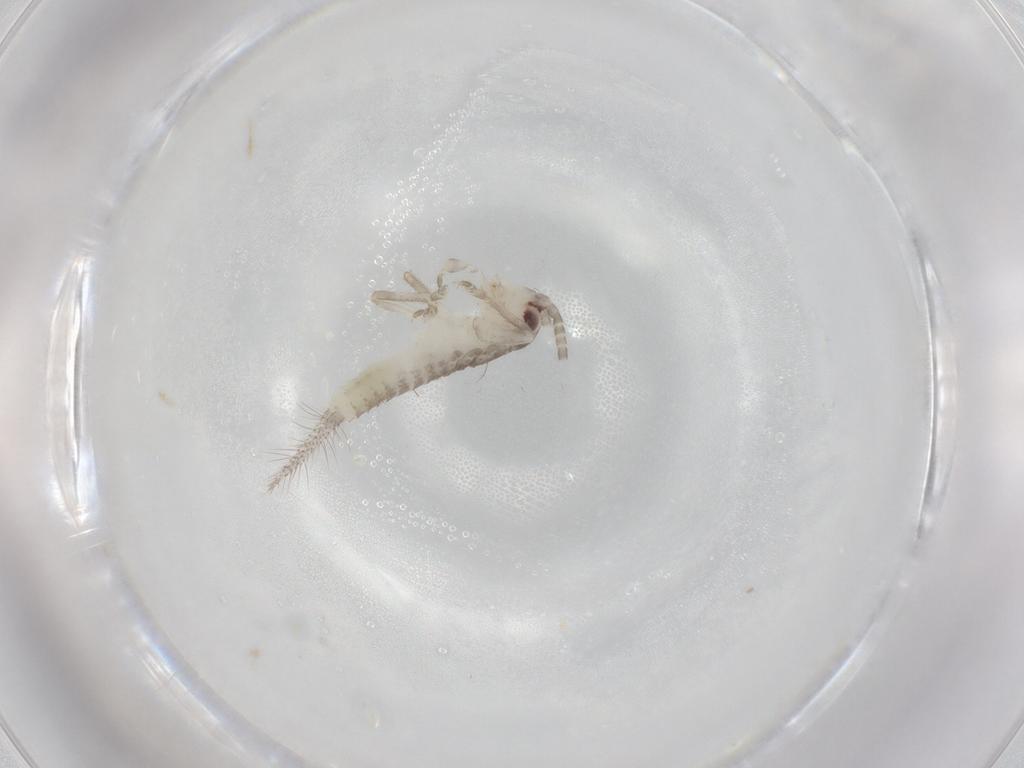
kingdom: Animalia
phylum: Arthropoda
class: Insecta
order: Orthoptera
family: Gryllidae
